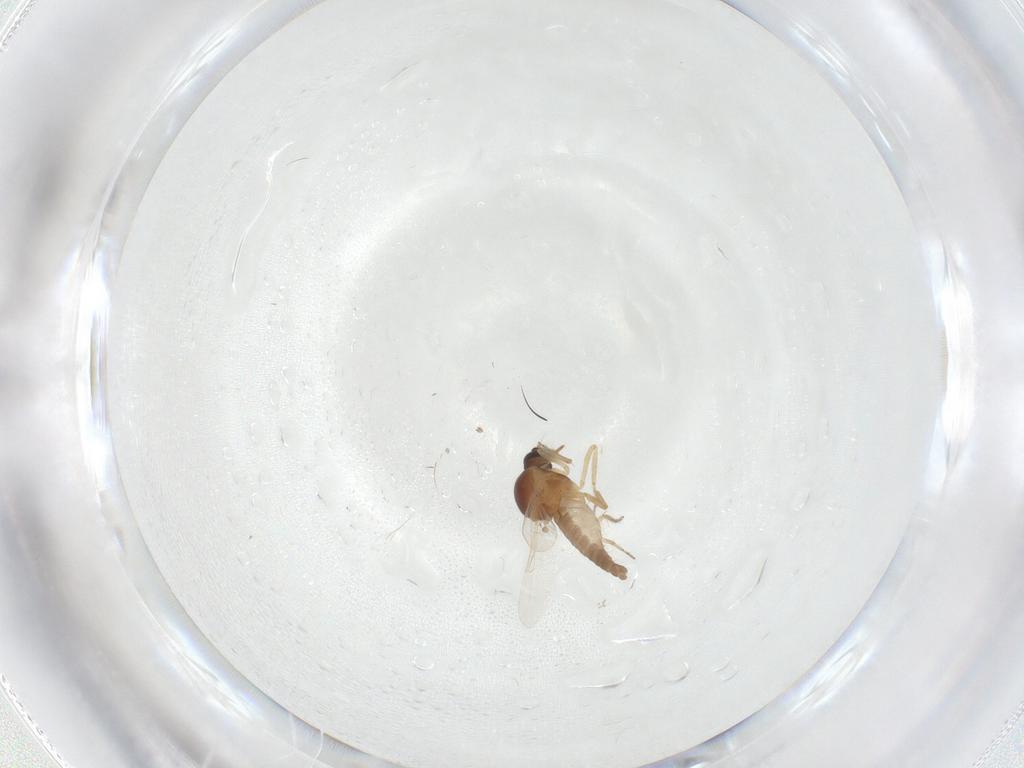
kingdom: Animalia
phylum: Arthropoda
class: Insecta
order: Diptera
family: Ceratopogonidae
